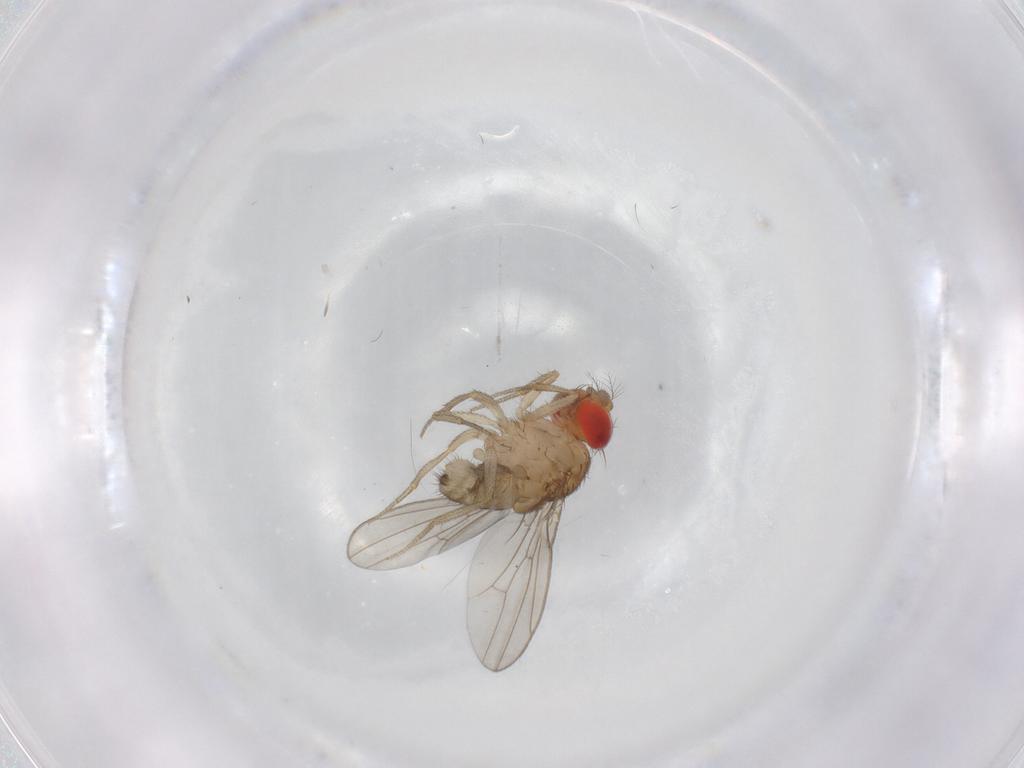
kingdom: Animalia
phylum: Arthropoda
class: Insecta
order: Diptera
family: Drosophilidae
